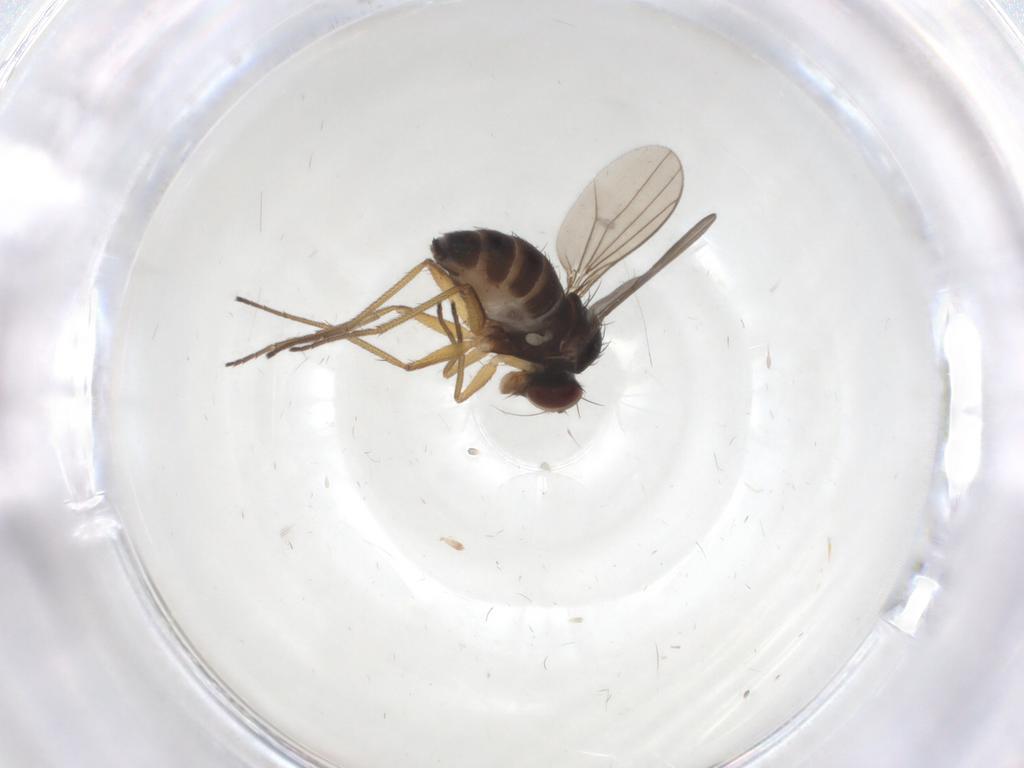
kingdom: Animalia
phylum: Arthropoda
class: Insecta
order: Diptera
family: Dolichopodidae
